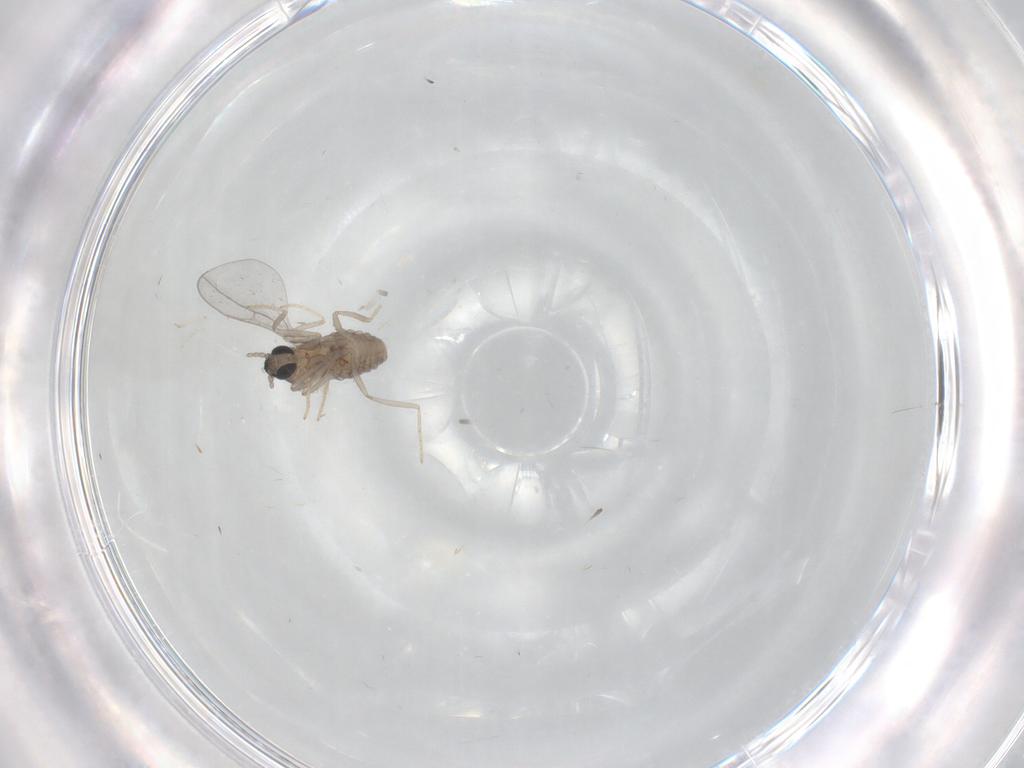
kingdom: Animalia
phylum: Arthropoda
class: Insecta
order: Diptera
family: Cecidomyiidae
